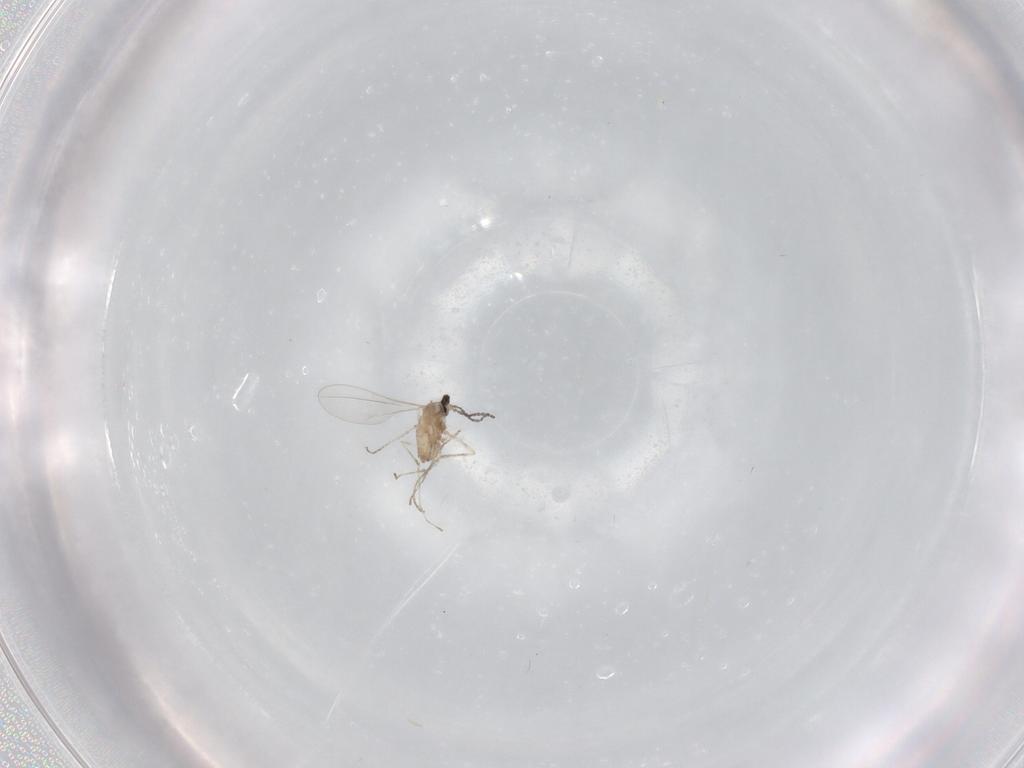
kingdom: Animalia
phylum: Arthropoda
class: Insecta
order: Diptera
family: Cecidomyiidae
